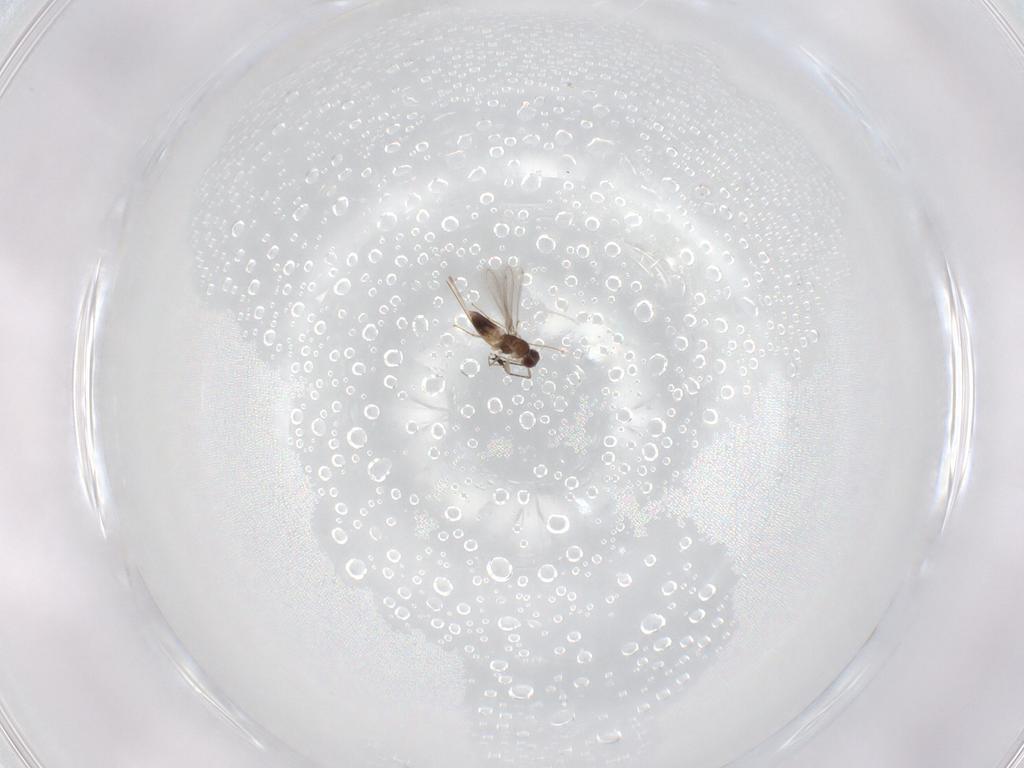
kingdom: Animalia
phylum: Arthropoda
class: Insecta
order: Hymenoptera
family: Mymaridae
